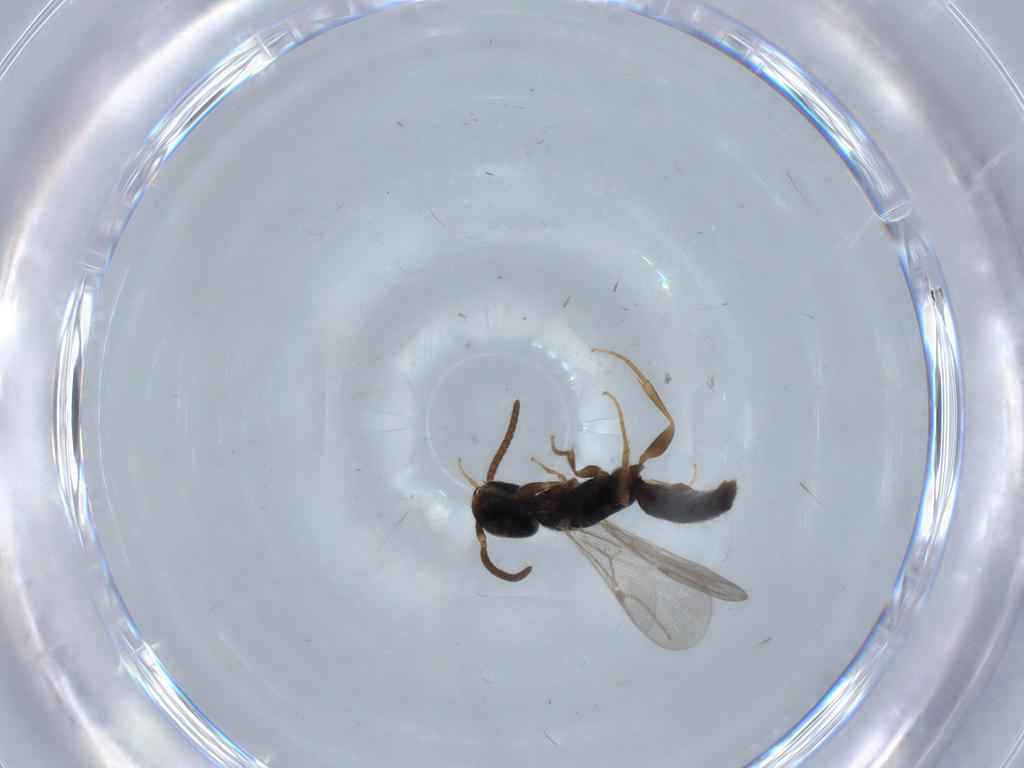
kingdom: Animalia
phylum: Arthropoda
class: Insecta
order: Hymenoptera
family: Bethylidae
